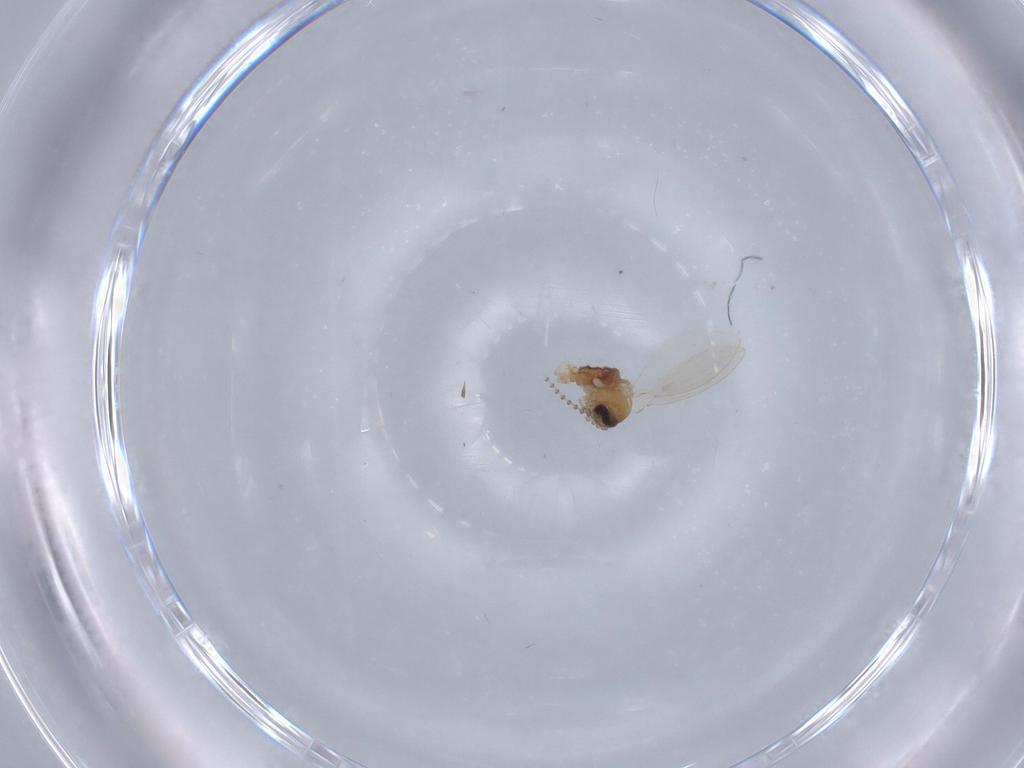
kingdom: Animalia
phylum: Arthropoda
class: Insecta
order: Diptera
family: Psychodidae
